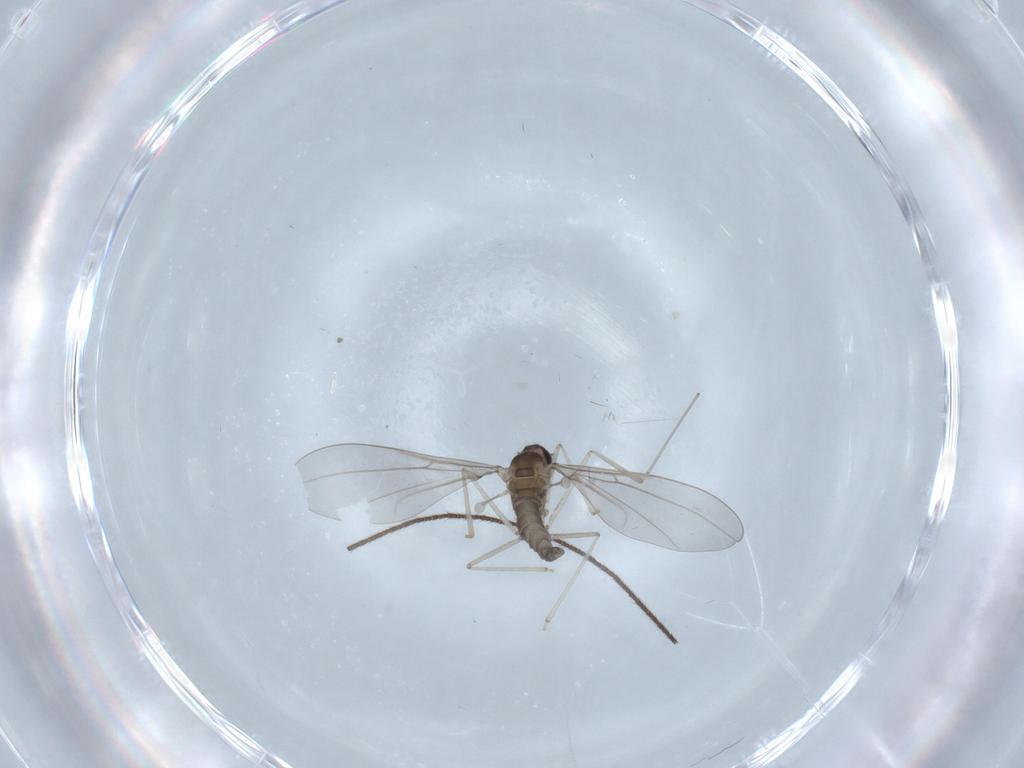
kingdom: Animalia
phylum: Arthropoda
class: Insecta
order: Diptera
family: Cecidomyiidae
